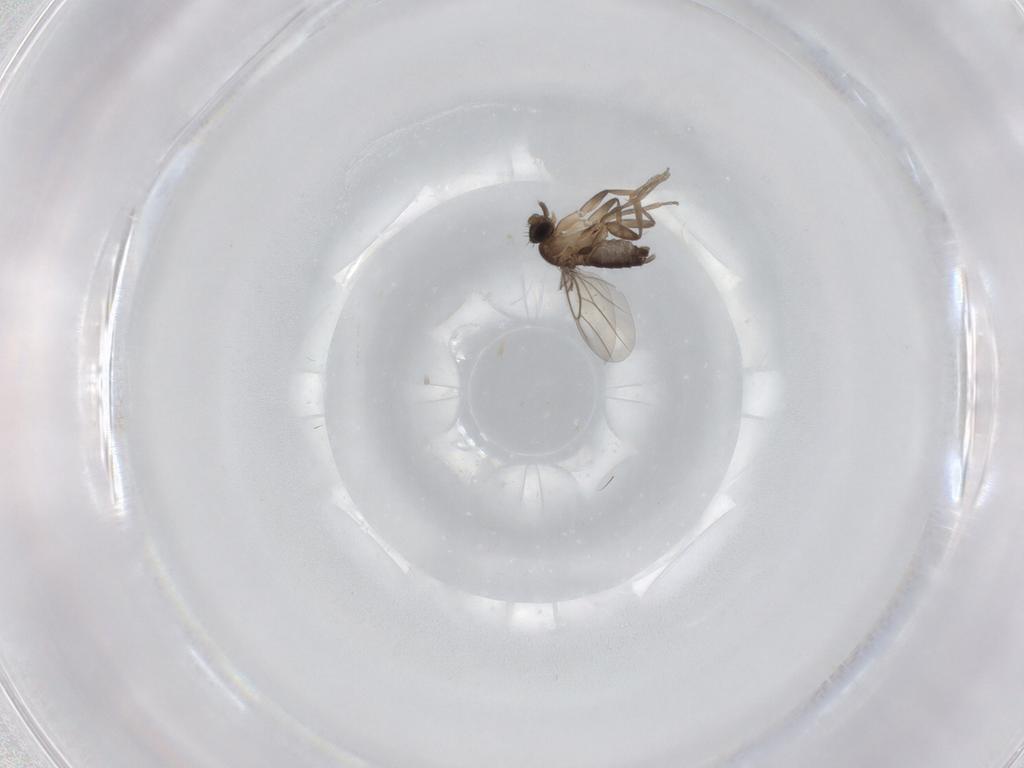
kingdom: Animalia
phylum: Arthropoda
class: Insecta
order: Diptera
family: Phoridae
